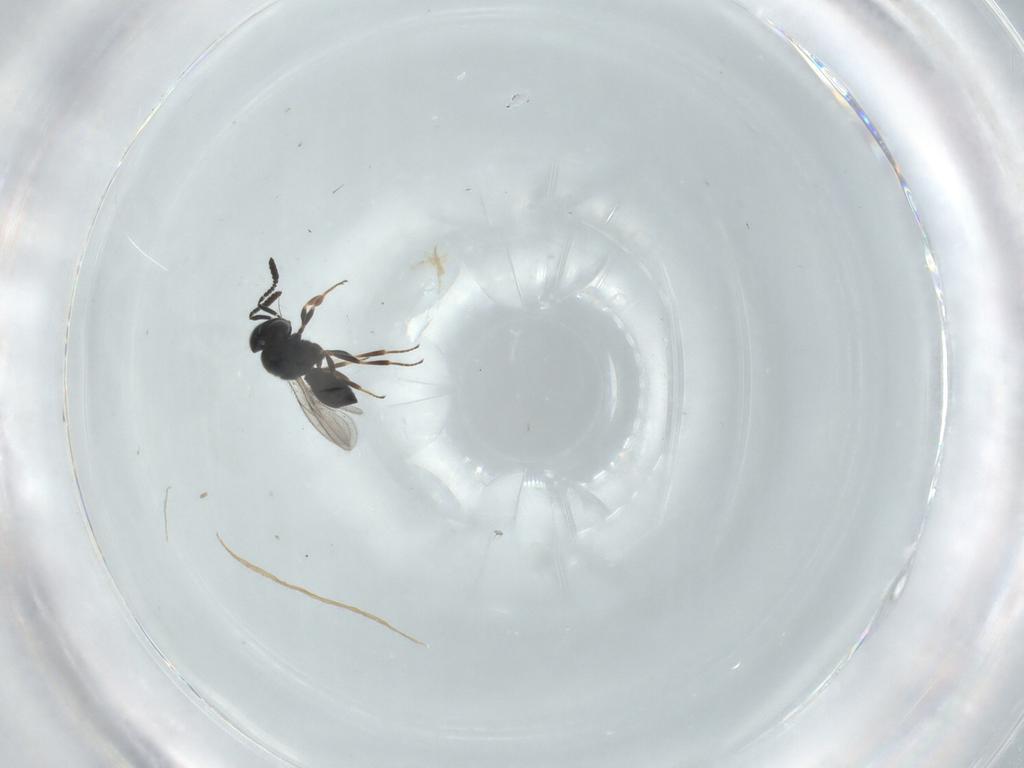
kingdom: Animalia
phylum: Arthropoda
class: Insecta
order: Hymenoptera
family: Scelionidae
